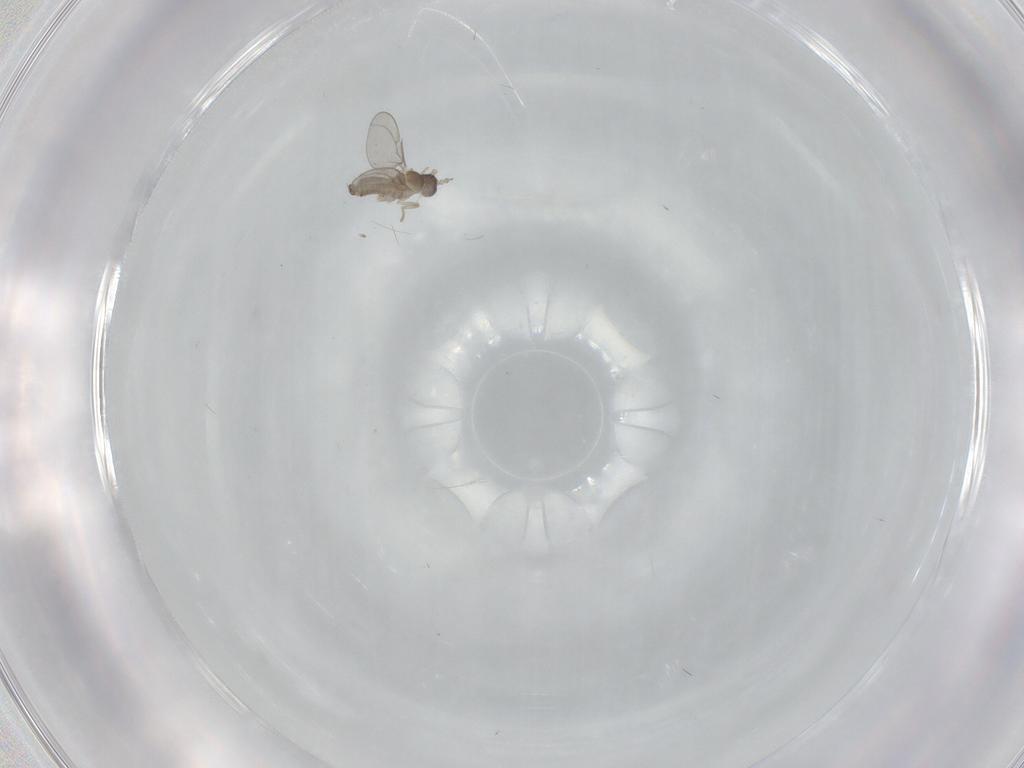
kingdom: Animalia
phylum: Arthropoda
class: Insecta
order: Diptera
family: Cecidomyiidae
